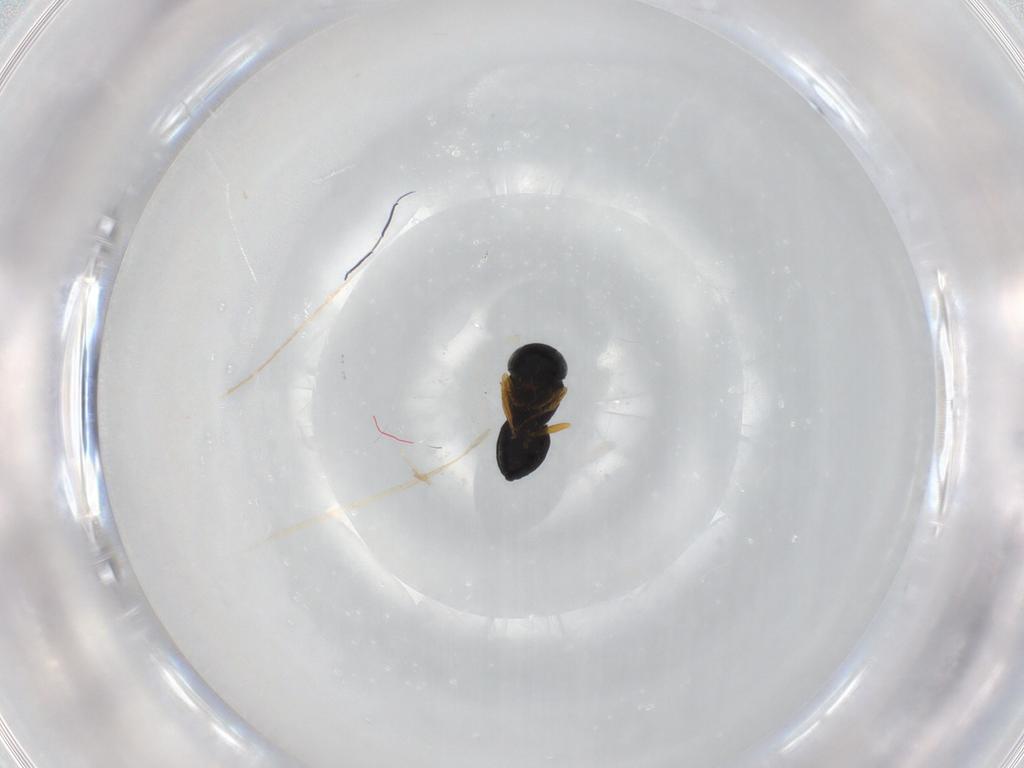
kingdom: Animalia
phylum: Arthropoda
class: Insecta
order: Hymenoptera
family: Scelionidae
